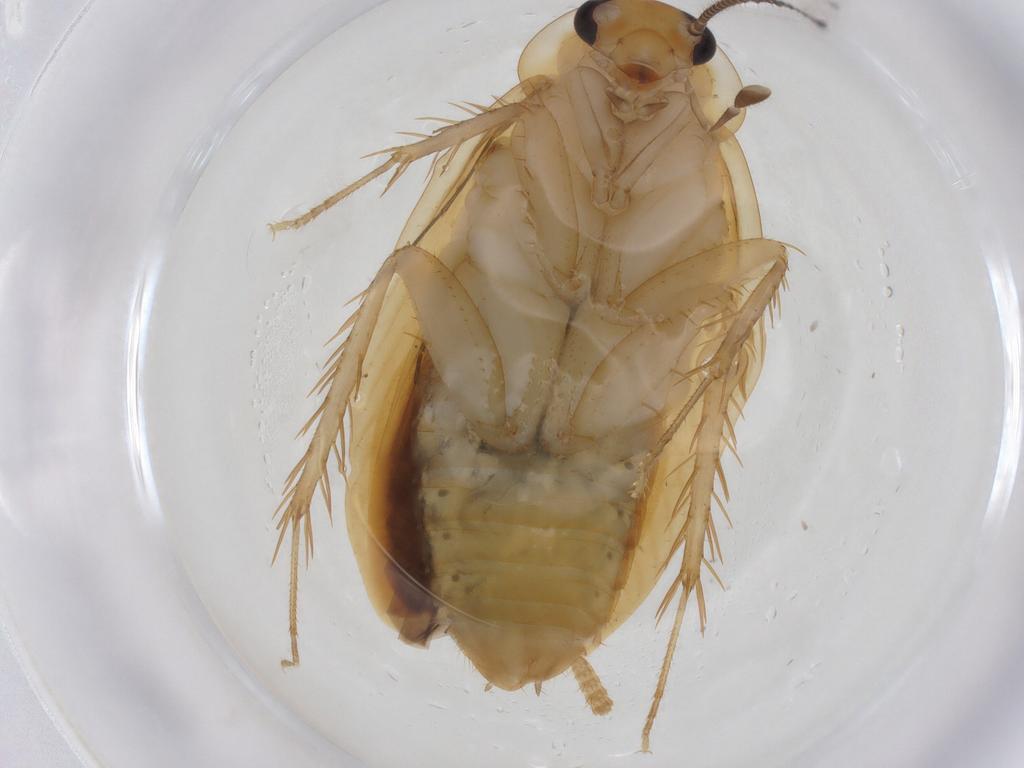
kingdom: Animalia
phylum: Arthropoda
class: Insecta
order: Blattodea
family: Blaberidae
